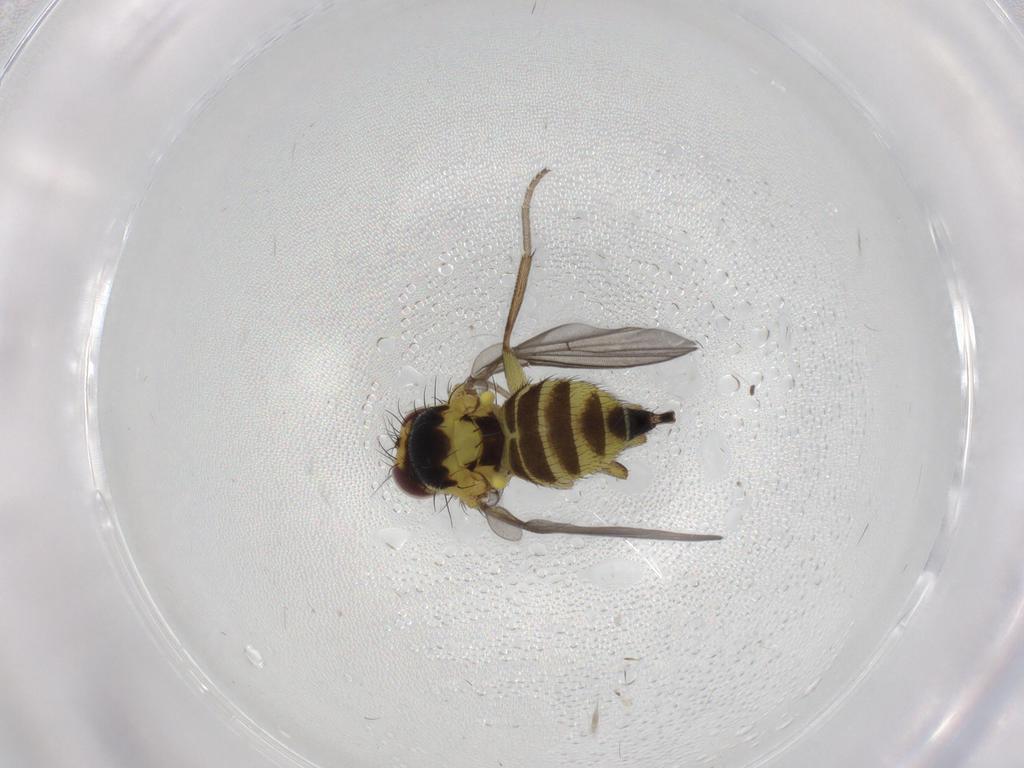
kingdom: Animalia
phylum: Arthropoda
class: Insecta
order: Diptera
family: Agromyzidae
